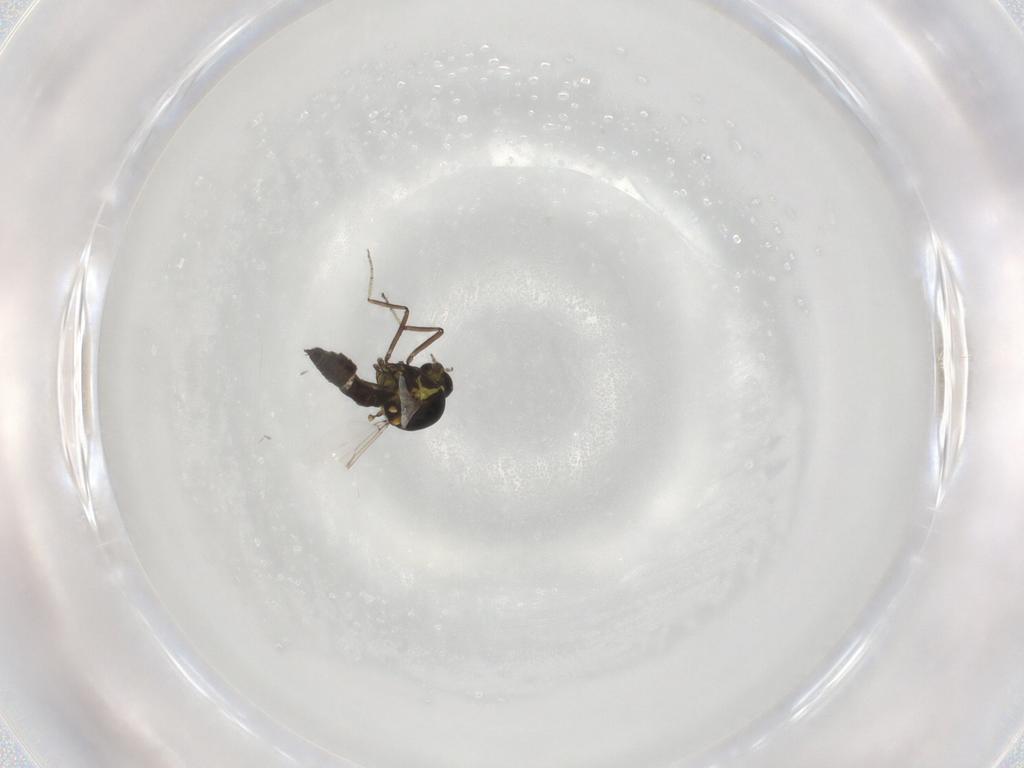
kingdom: Animalia
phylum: Arthropoda
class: Insecta
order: Diptera
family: Ceratopogonidae
